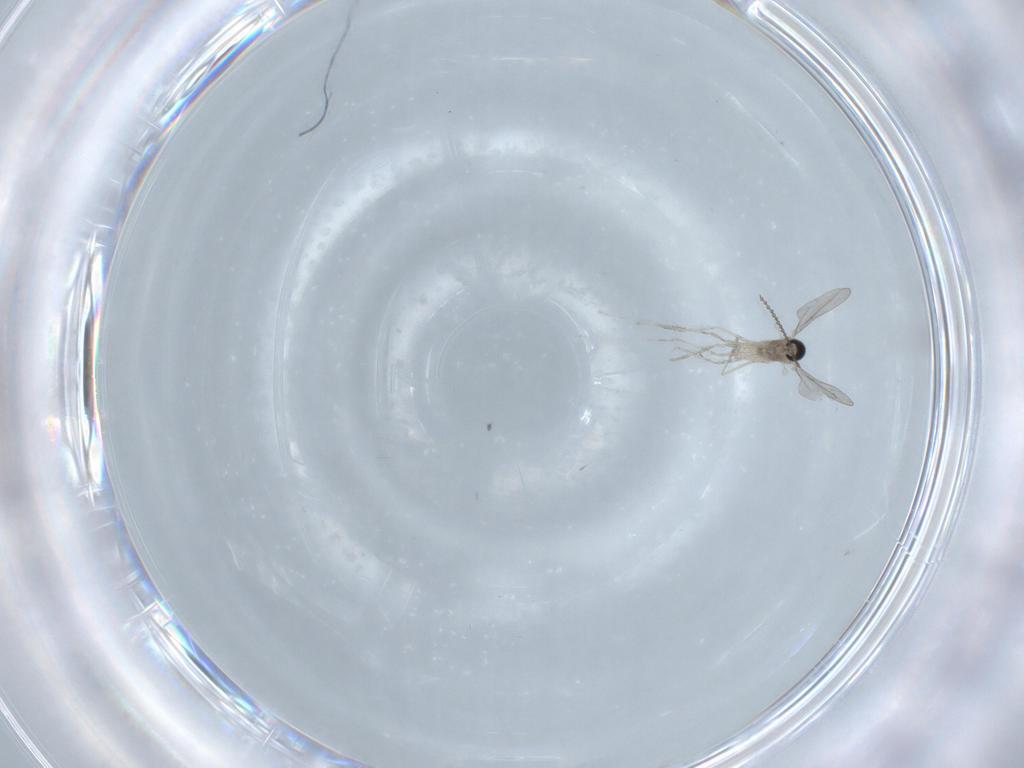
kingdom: Animalia
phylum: Arthropoda
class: Insecta
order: Diptera
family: Cecidomyiidae
